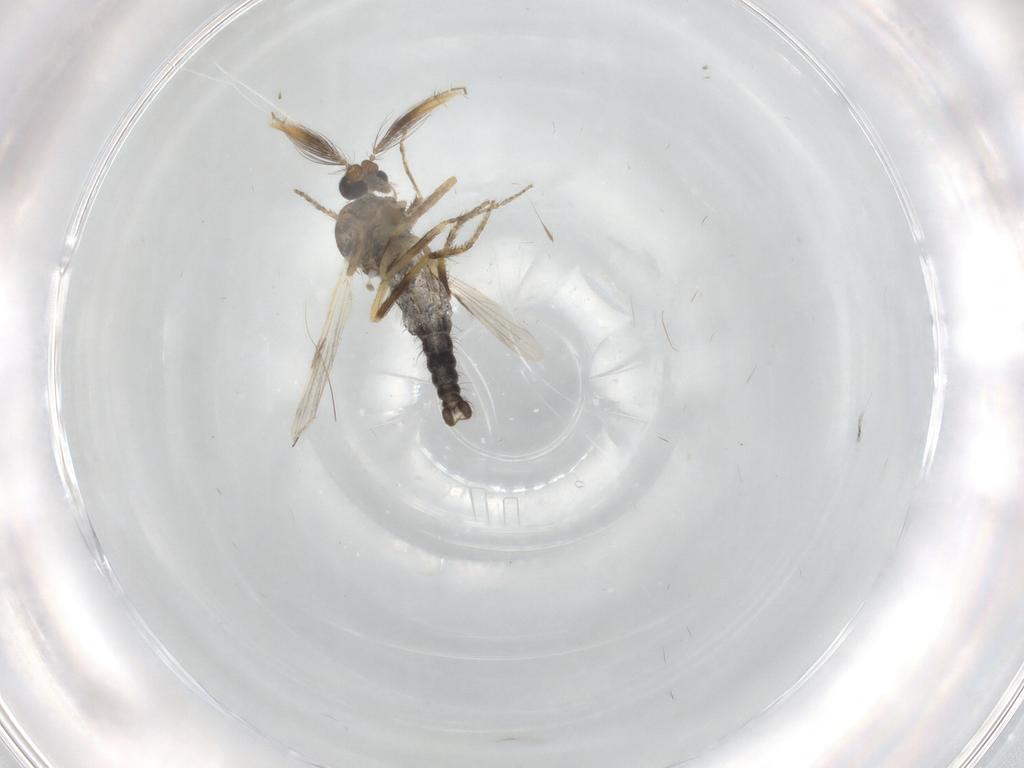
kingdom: Animalia
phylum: Arthropoda
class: Insecta
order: Diptera
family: Ceratopogonidae
